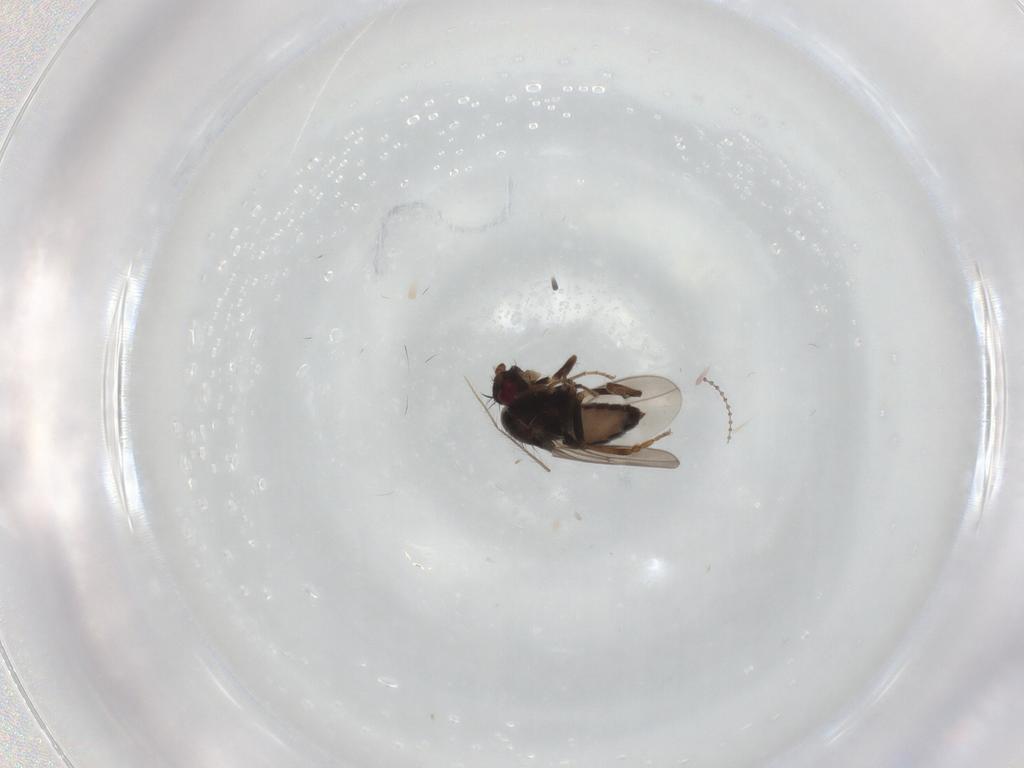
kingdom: Animalia
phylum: Arthropoda
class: Insecta
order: Diptera
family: Sphaeroceridae
